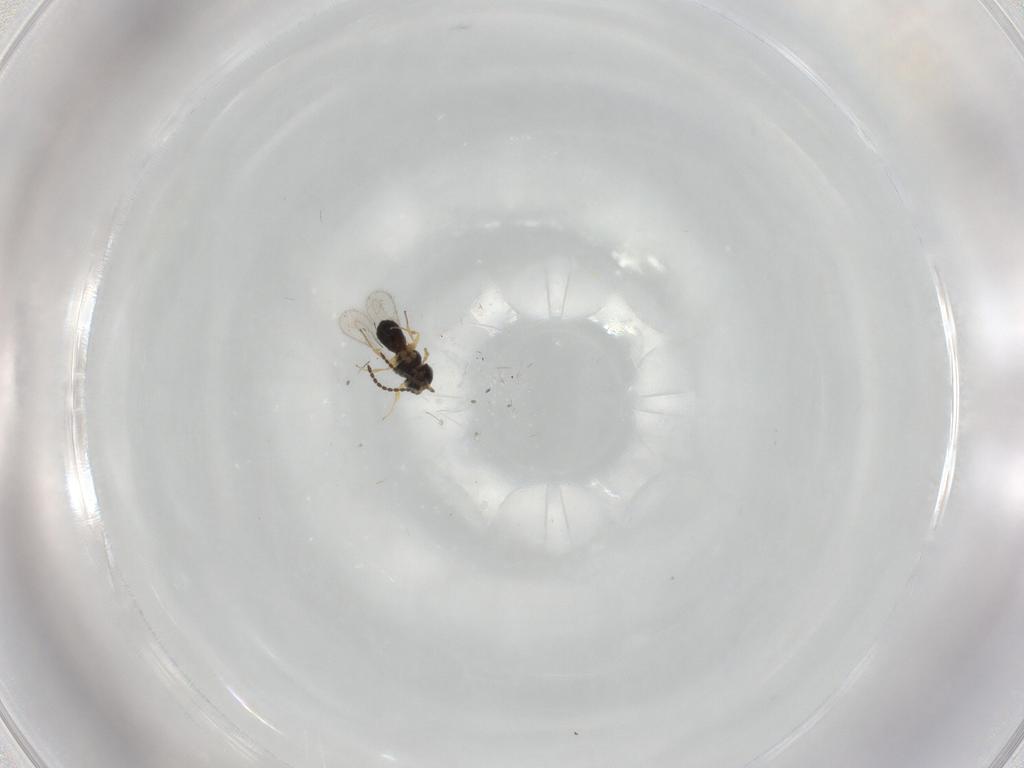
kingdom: Animalia
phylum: Arthropoda
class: Insecta
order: Hymenoptera
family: Scelionidae
